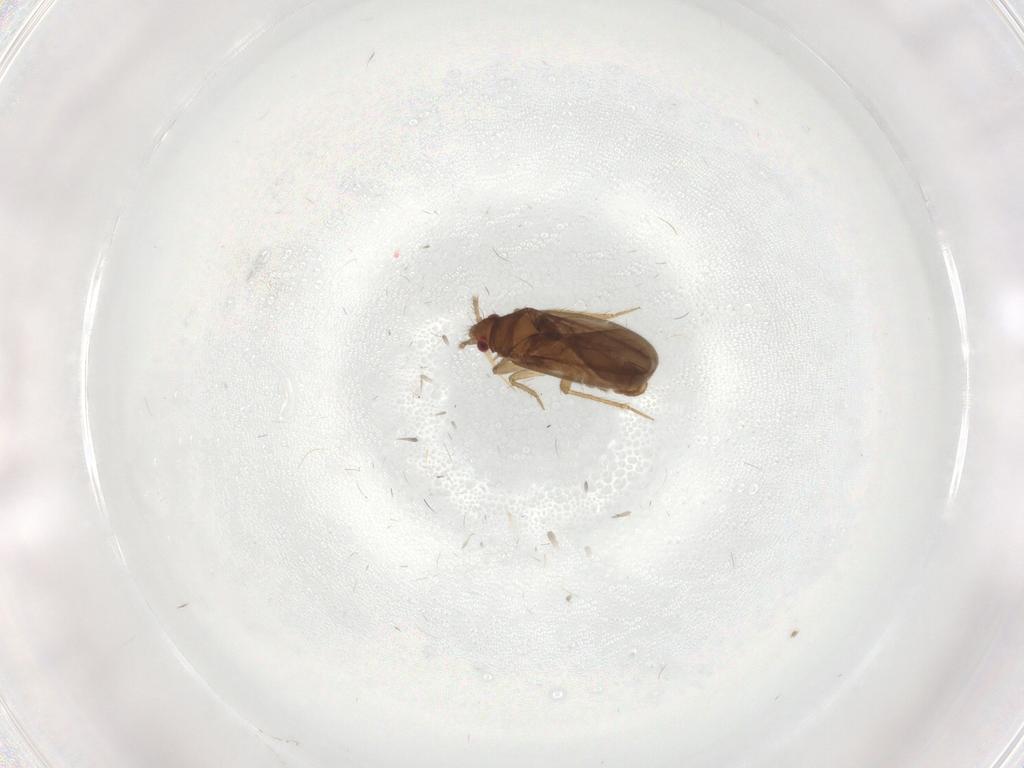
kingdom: Animalia
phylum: Arthropoda
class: Insecta
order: Hemiptera
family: Ceratocombidae
